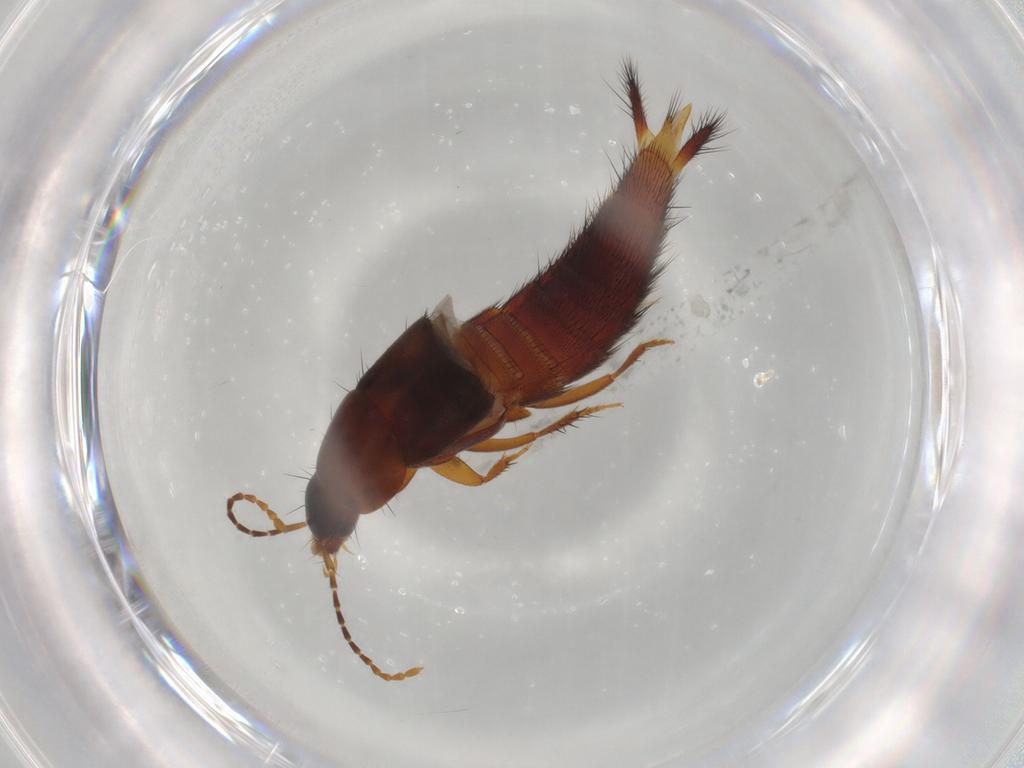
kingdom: Animalia
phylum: Arthropoda
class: Insecta
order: Coleoptera
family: Staphylinidae
